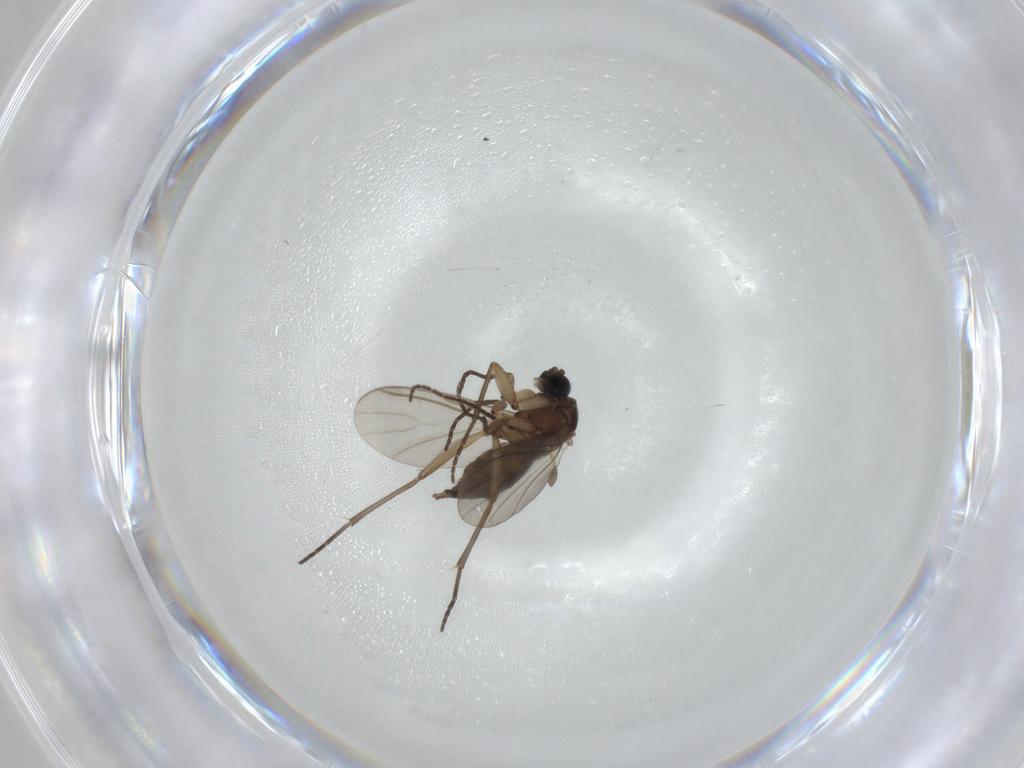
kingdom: Animalia
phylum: Arthropoda
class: Insecta
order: Diptera
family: Sciaridae
